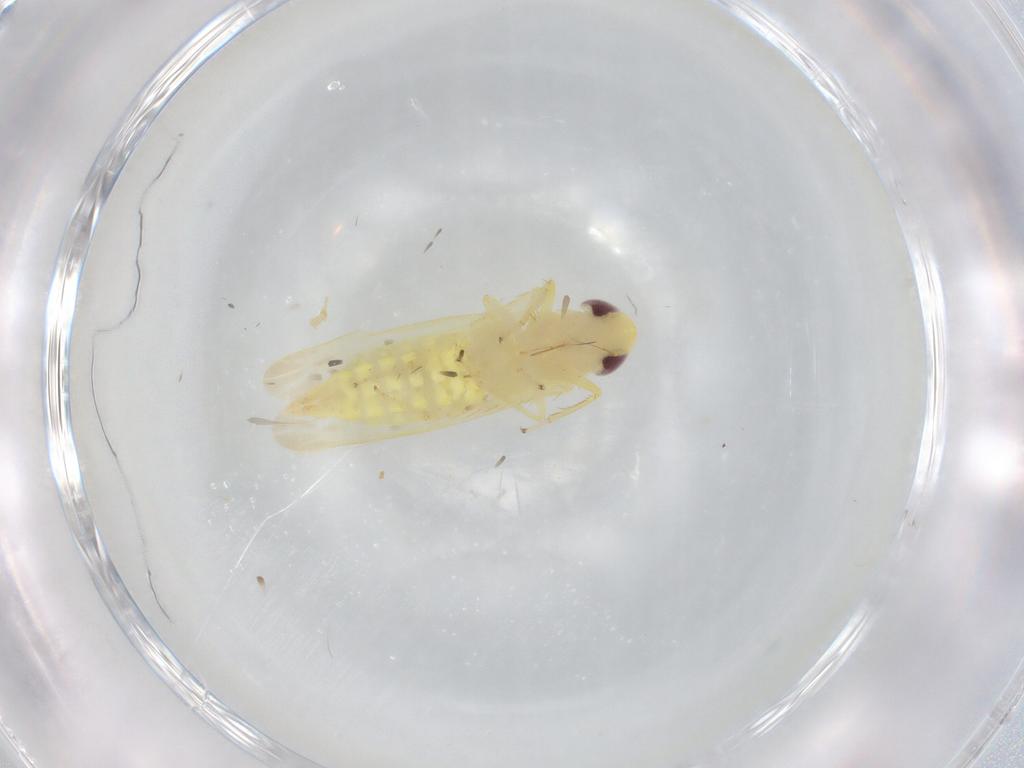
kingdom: Animalia
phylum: Arthropoda
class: Insecta
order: Hemiptera
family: Cicadellidae
